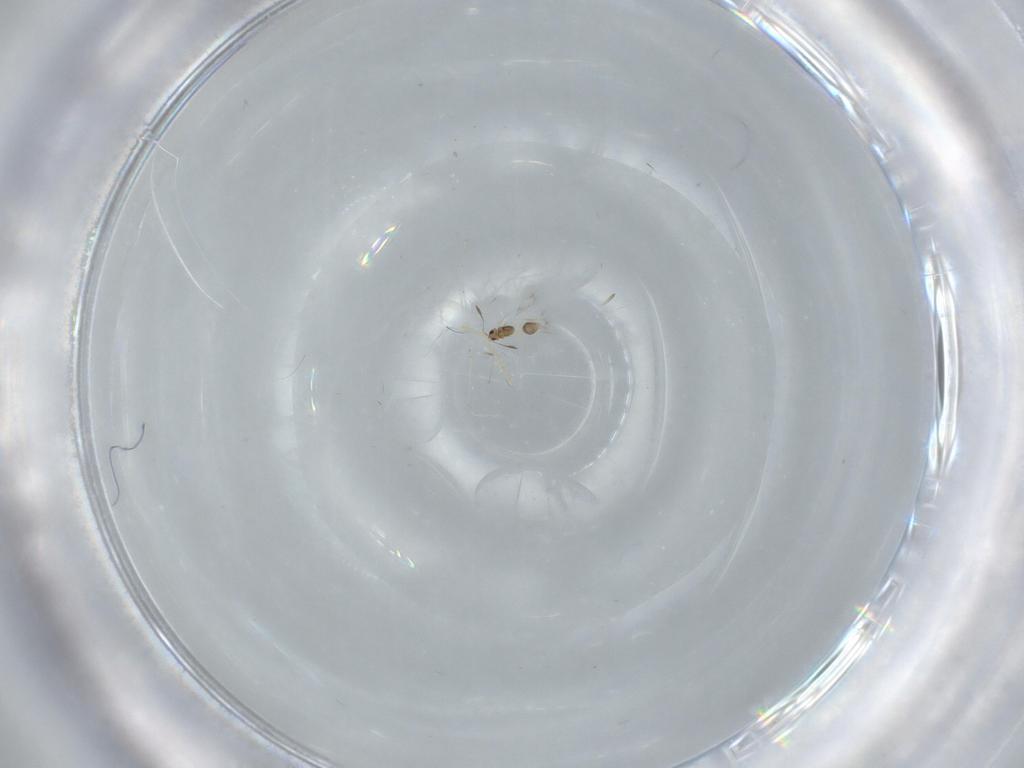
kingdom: Animalia
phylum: Arthropoda
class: Insecta
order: Hymenoptera
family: Mymarommatidae
